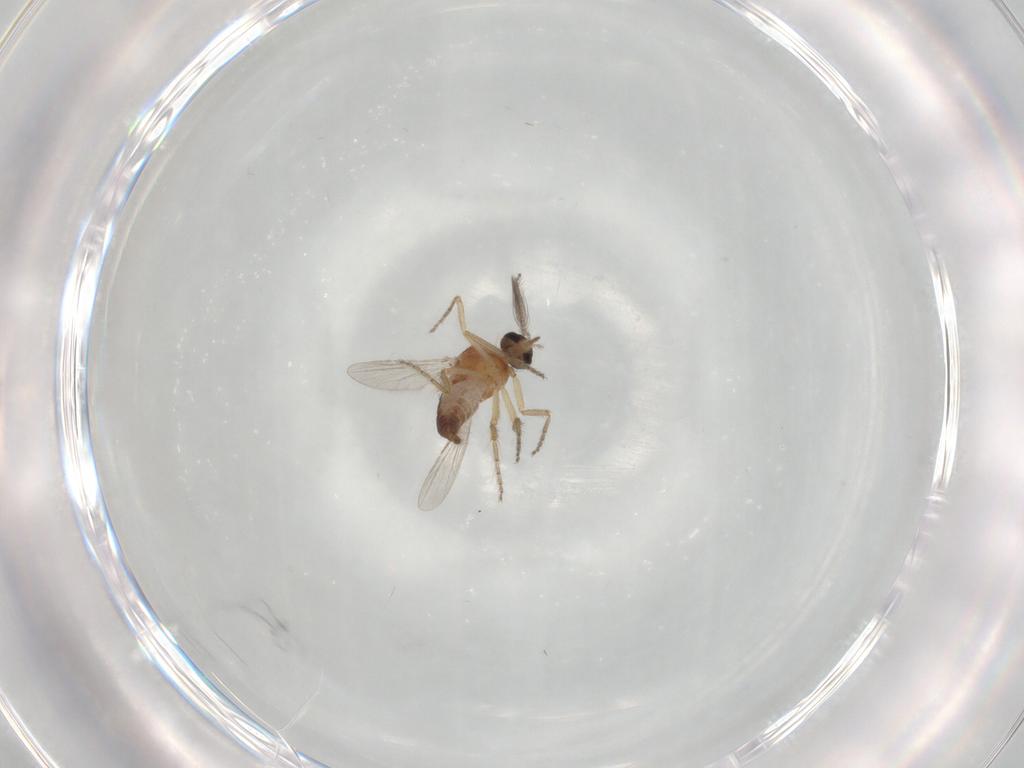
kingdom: Animalia
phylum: Arthropoda
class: Insecta
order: Diptera
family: Ceratopogonidae
